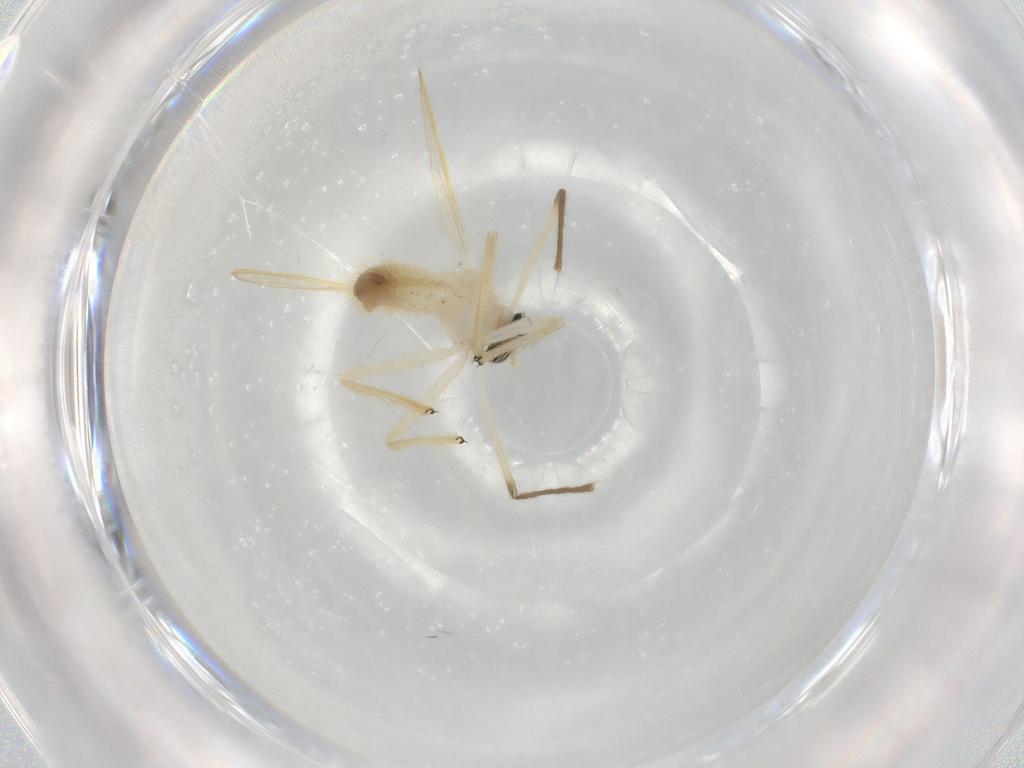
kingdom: Animalia
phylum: Arthropoda
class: Insecta
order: Diptera
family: Chironomidae
